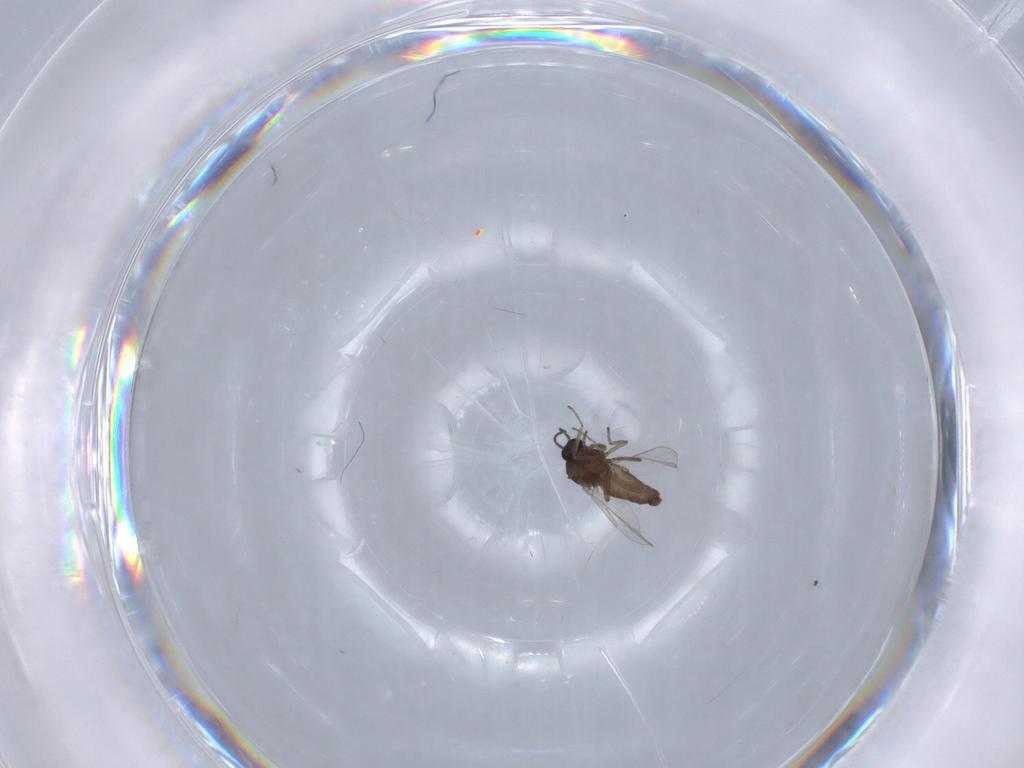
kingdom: Animalia
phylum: Arthropoda
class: Insecta
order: Diptera
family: Ceratopogonidae
